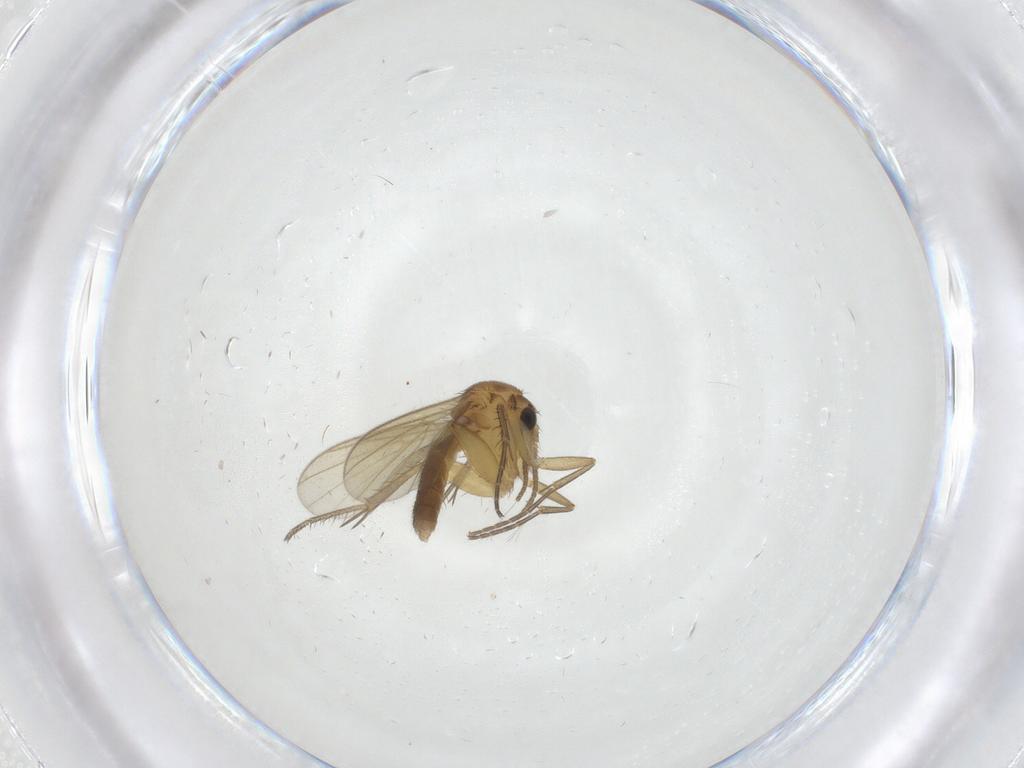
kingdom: Animalia
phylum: Arthropoda
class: Insecta
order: Diptera
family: Mycetophilidae
